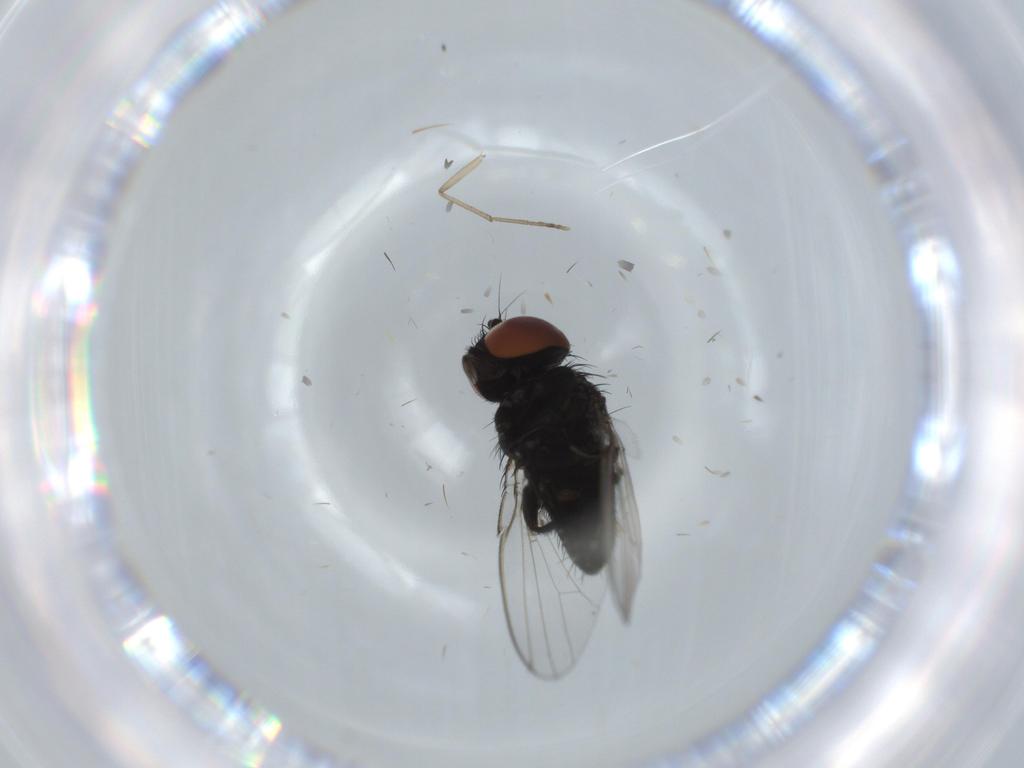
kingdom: Animalia
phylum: Arthropoda
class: Insecta
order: Diptera
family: Milichiidae
